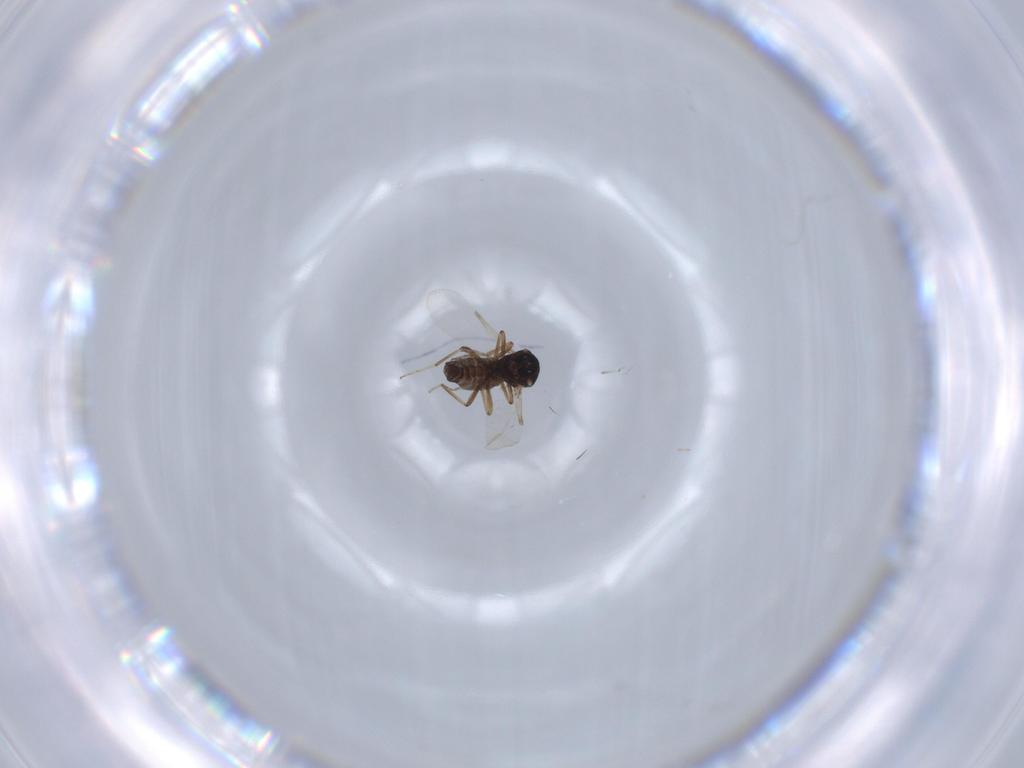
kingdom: Animalia
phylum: Arthropoda
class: Insecta
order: Diptera
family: Ceratopogonidae
